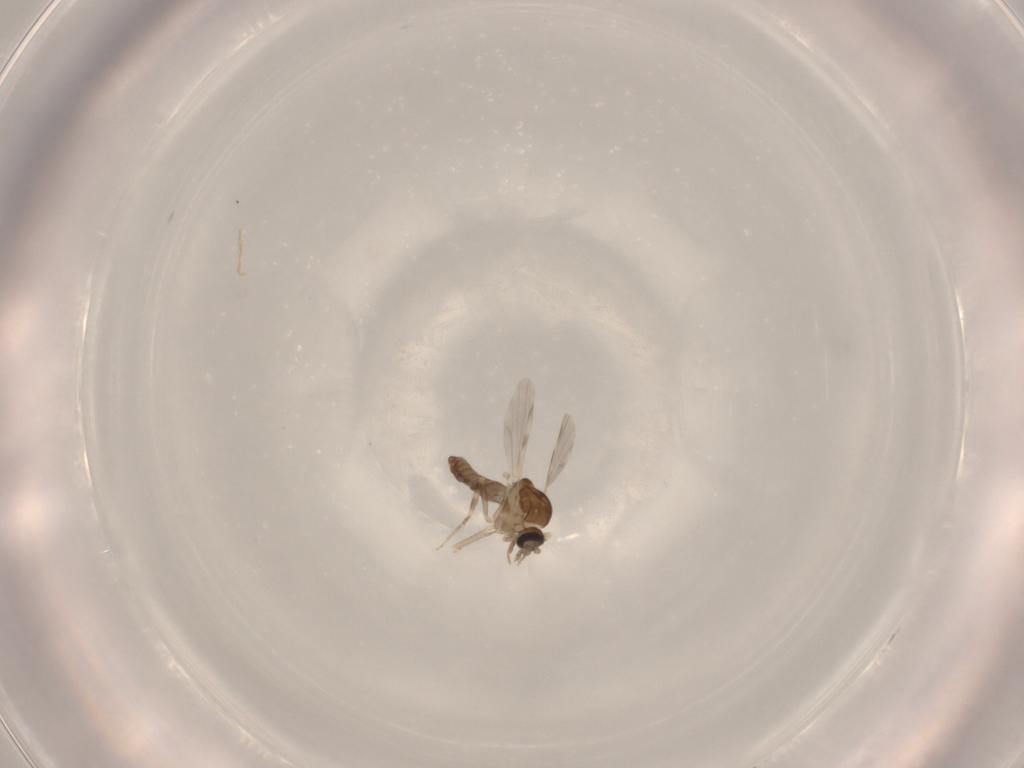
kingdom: Animalia
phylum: Arthropoda
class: Insecta
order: Diptera
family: Ceratopogonidae
